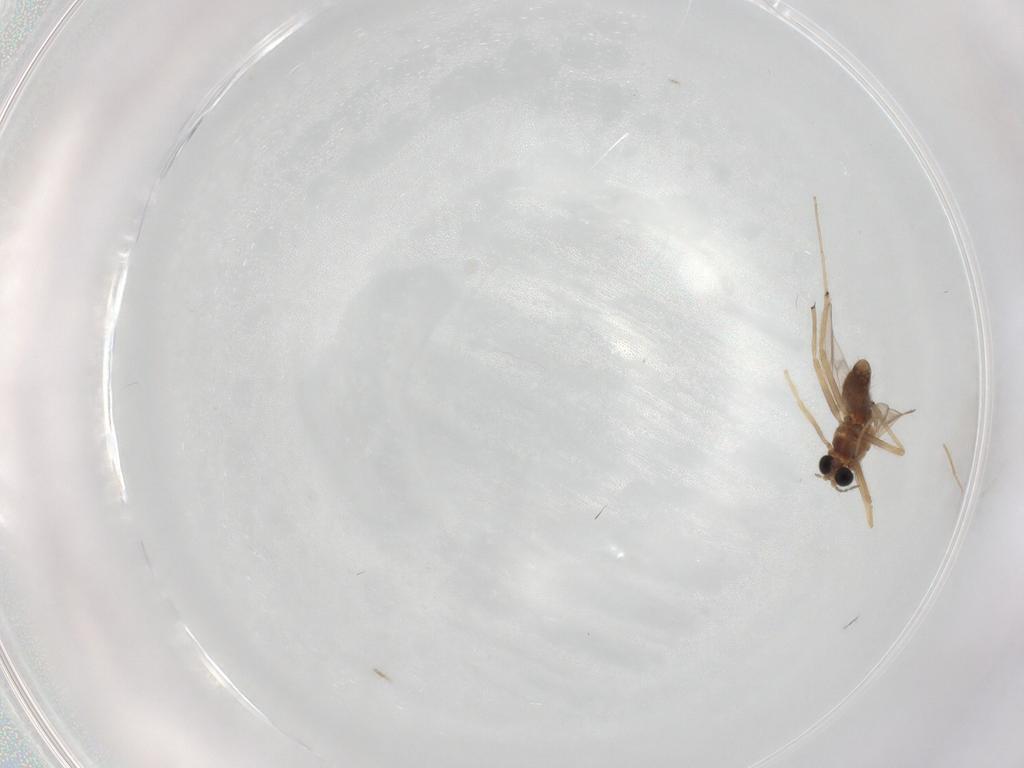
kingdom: Animalia
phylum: Arthropoda
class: Insecta
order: Diptera
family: Chironomidae
